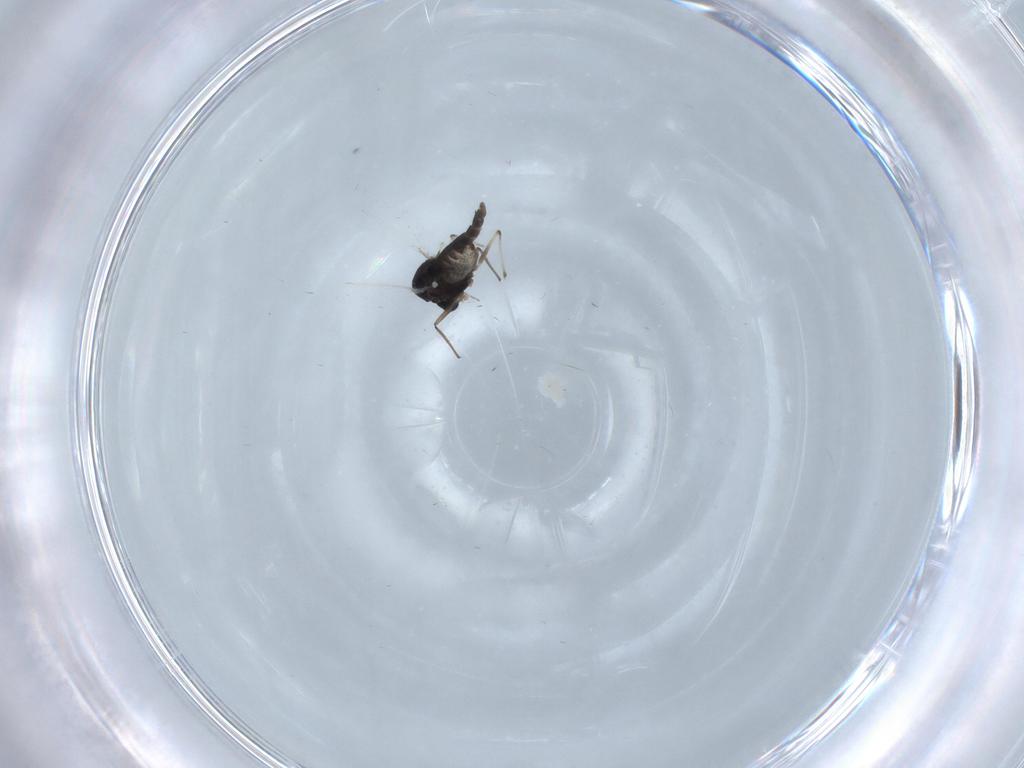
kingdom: Animalia
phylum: Arthropoda
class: Insecta
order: Diptera
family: Chironomidae
